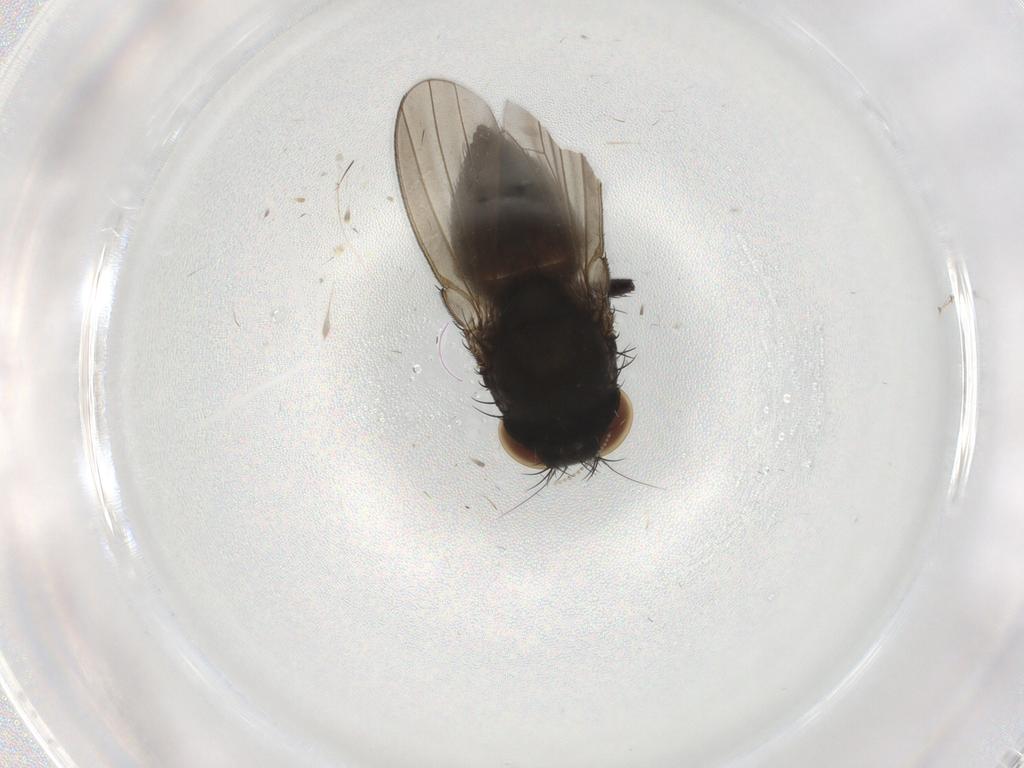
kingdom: Animalia
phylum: Arthropoda
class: Insecta
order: Diptera
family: Milichiidae
